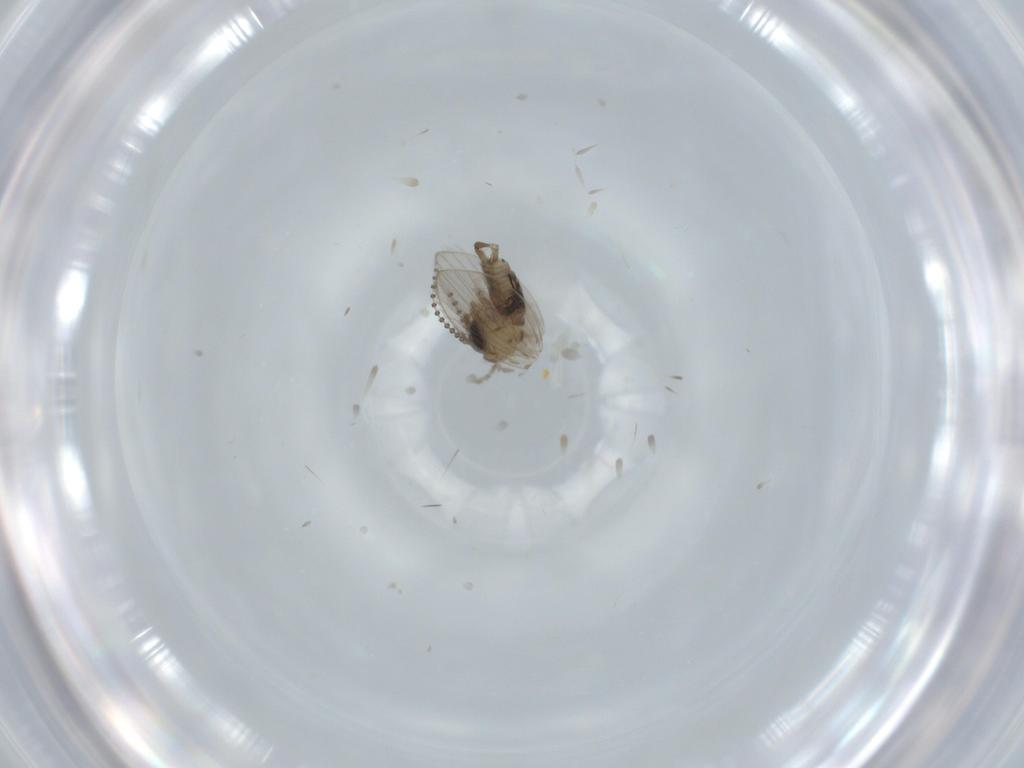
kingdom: Animalia
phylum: Arthropoda
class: Insecta
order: Diptera
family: Psychodidae
